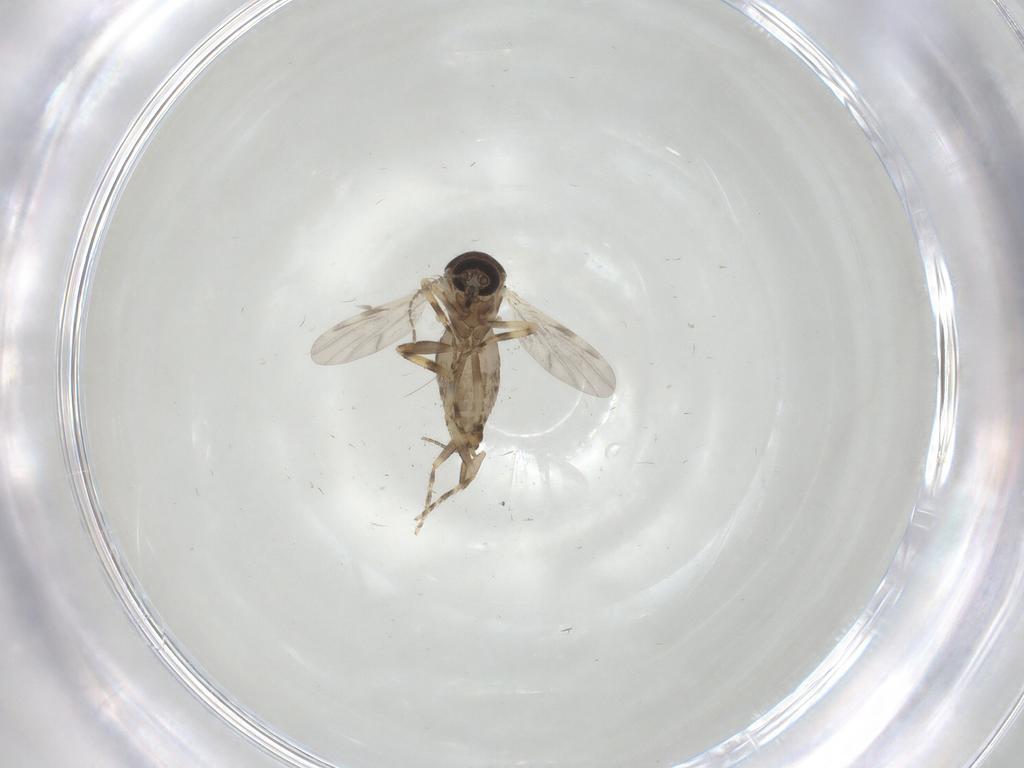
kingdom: Animalia
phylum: Arthropoda
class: Insecta
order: Diptera
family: Ceratopogonidae
